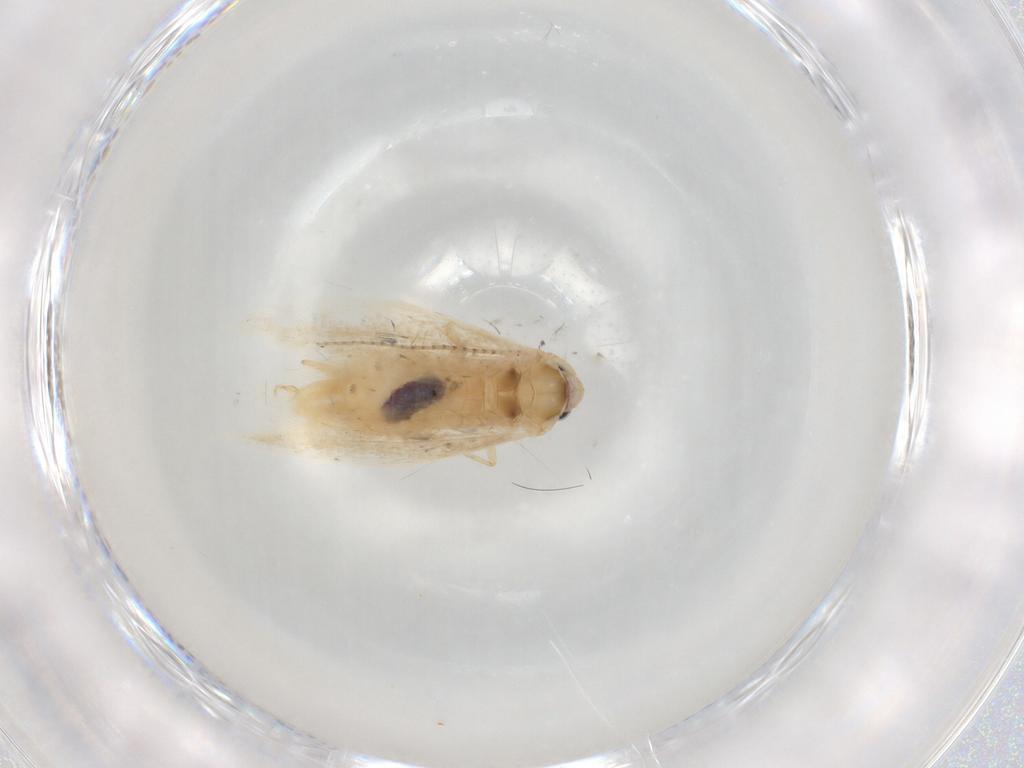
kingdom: Animalia
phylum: Arthropoda
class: Insecta
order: Lepidoptera
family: Bucculatricidae
